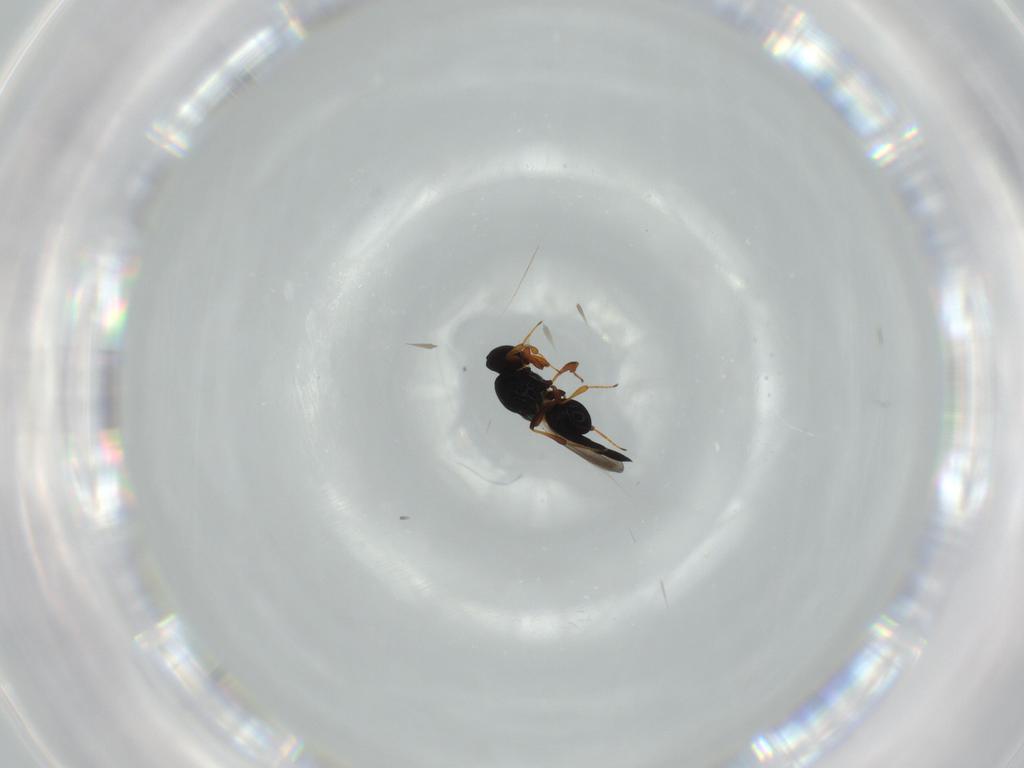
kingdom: Animalia
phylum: Arthropoda
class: Insecta
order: Hymenoptera
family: Platygastridae
